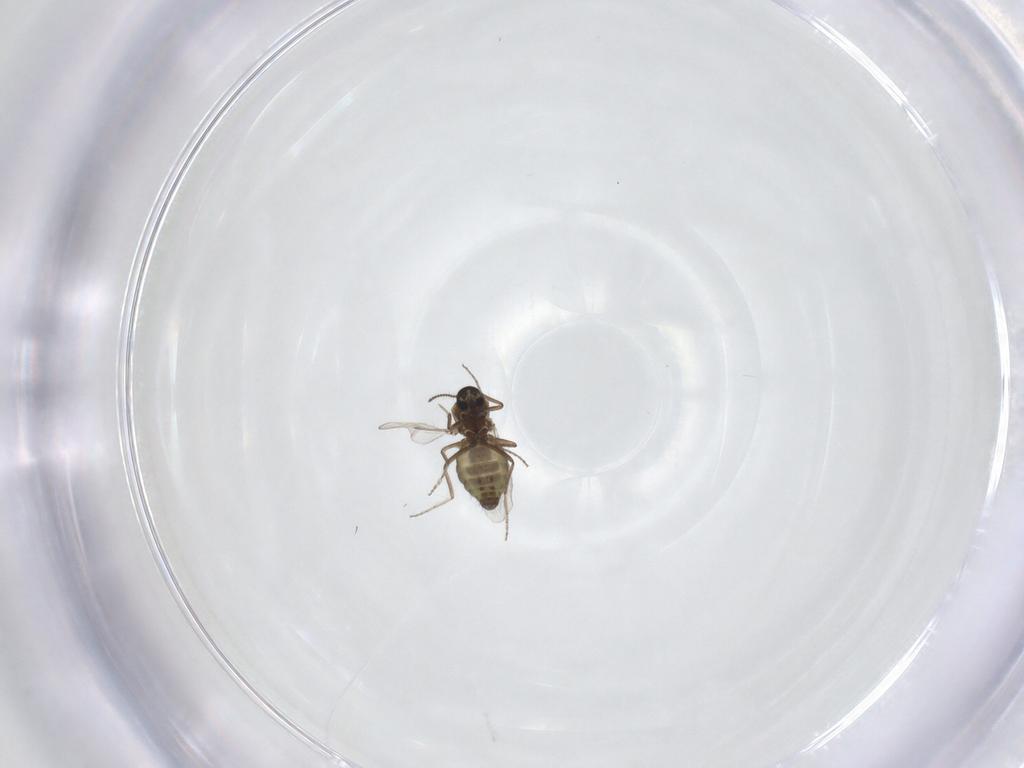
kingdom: Animalia
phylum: Arthropoda
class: Insecta
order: Diptera
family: Ceratopogonidae
